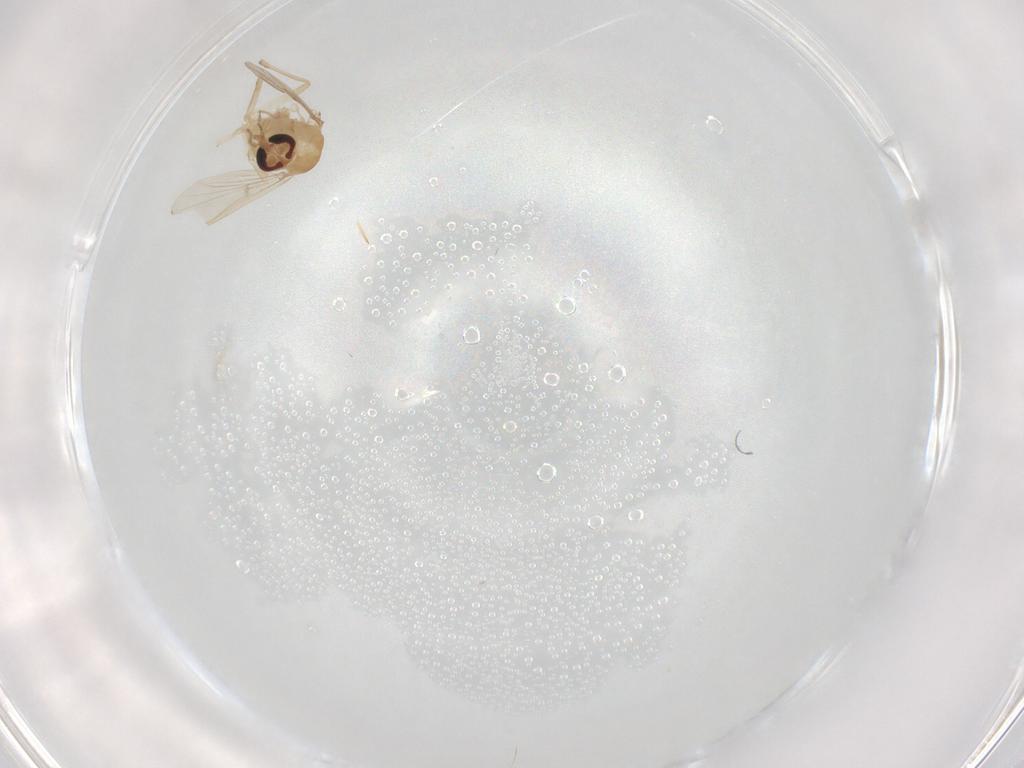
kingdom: Animalia
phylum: Arthropoda
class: Insecta
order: Diptera
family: Chironomidae
